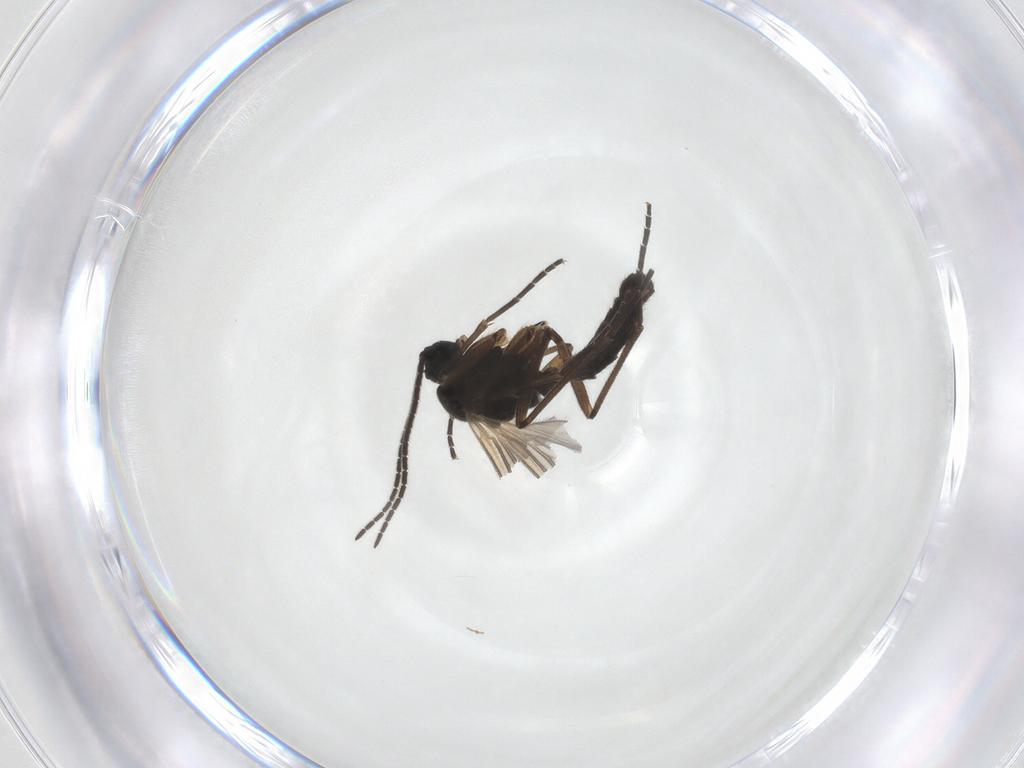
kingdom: Animalia
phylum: Arthropoda
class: Insecta
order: Diptera
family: Sciaridae
